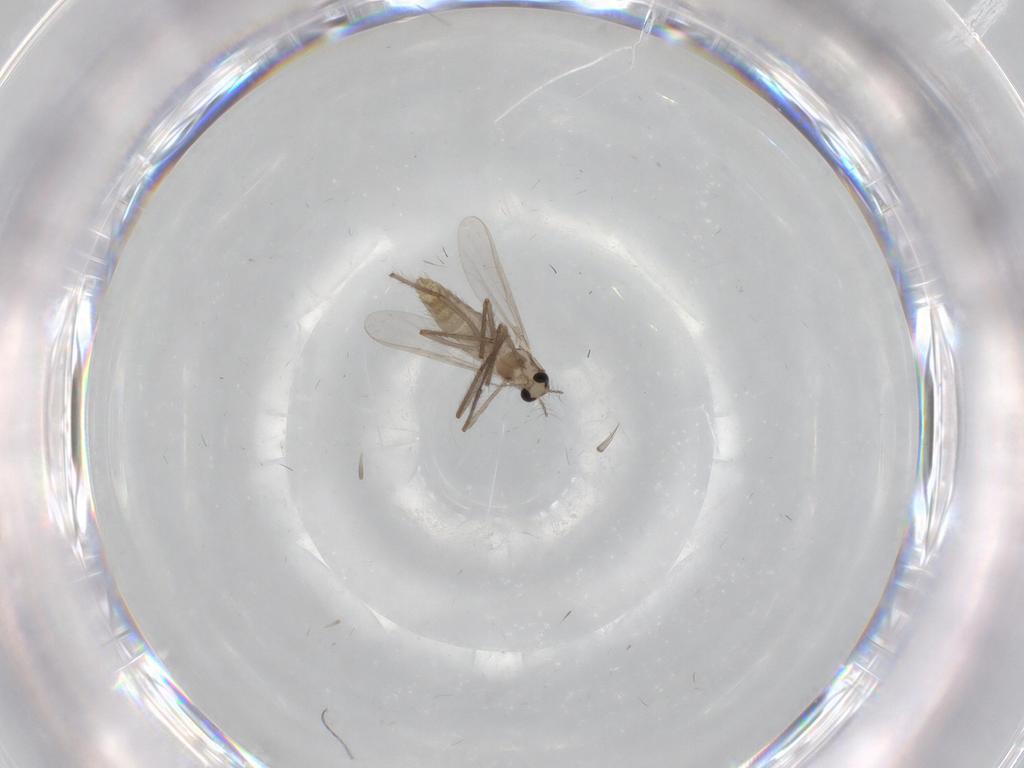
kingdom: Animalia
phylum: Arthropoda
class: Insecta
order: Diptera
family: Chironomidae
